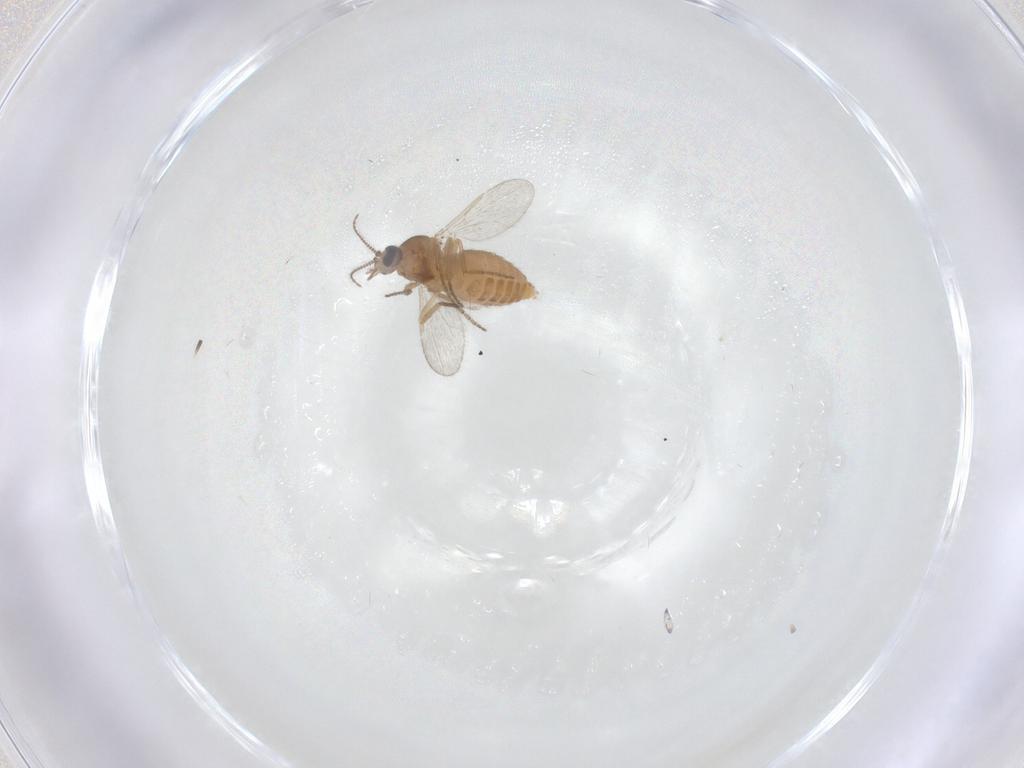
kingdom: Animalia
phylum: Arthropoda
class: Insecta
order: Diptera
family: Ceratopogonidae
